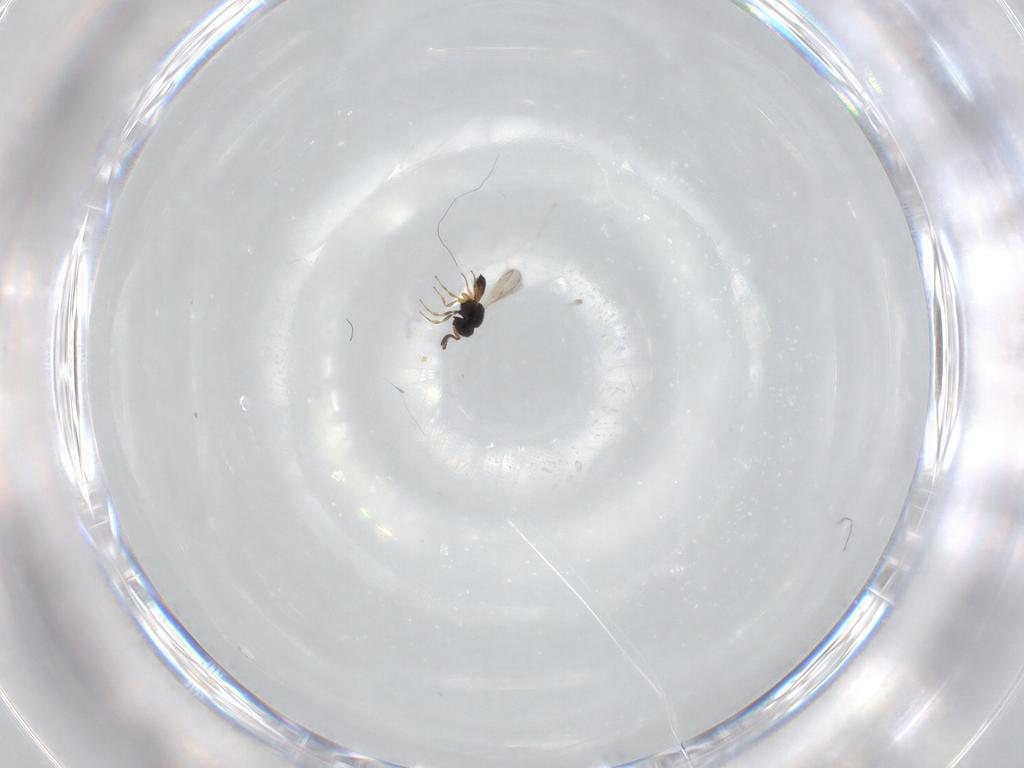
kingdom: Animalia
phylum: Arthropoda
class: Insecta
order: Hymenoptera
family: Scelionidae
